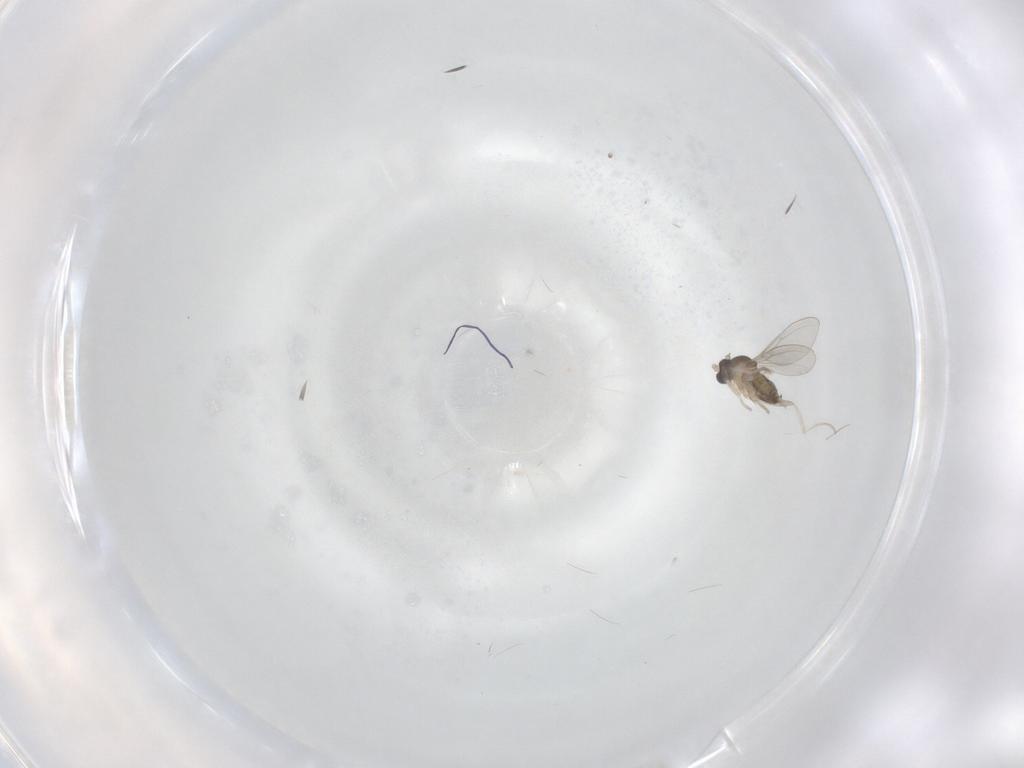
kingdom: Animalia
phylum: Arthropoda
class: Insecta
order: Diptera
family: Cecidomyiidae
